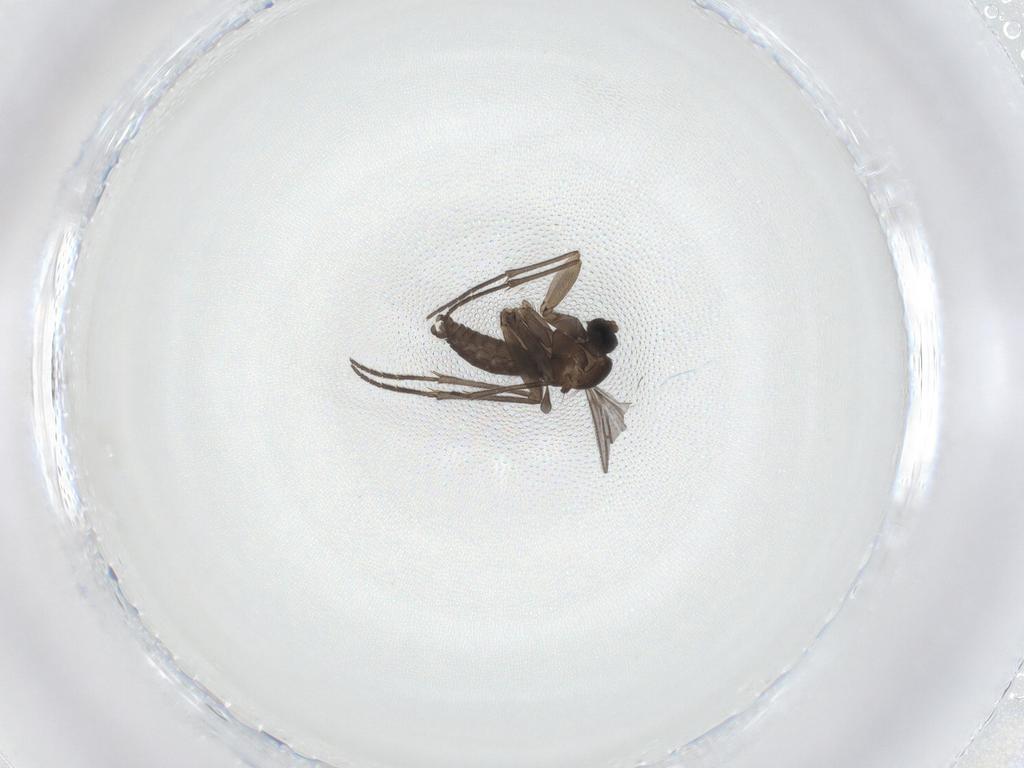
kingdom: Animalia
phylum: Arthropoda
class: Insecta
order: Diptera
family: Sciaridae
